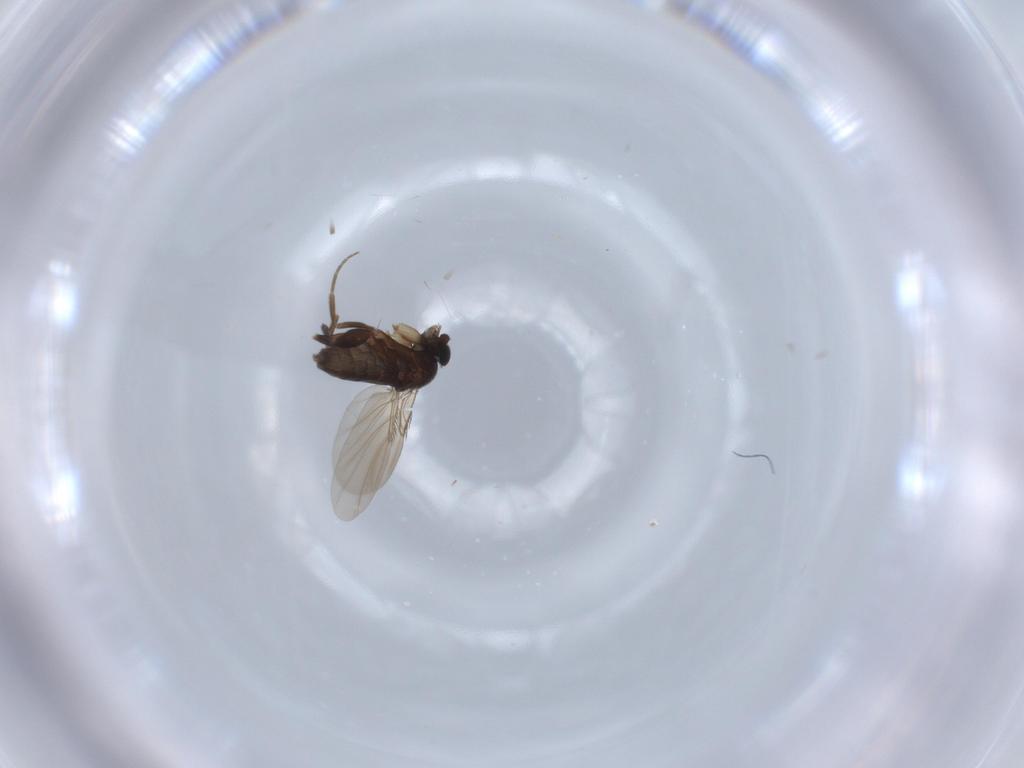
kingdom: Animalia
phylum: Arthropoda
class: Insecta
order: Diptera
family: Phoridae
